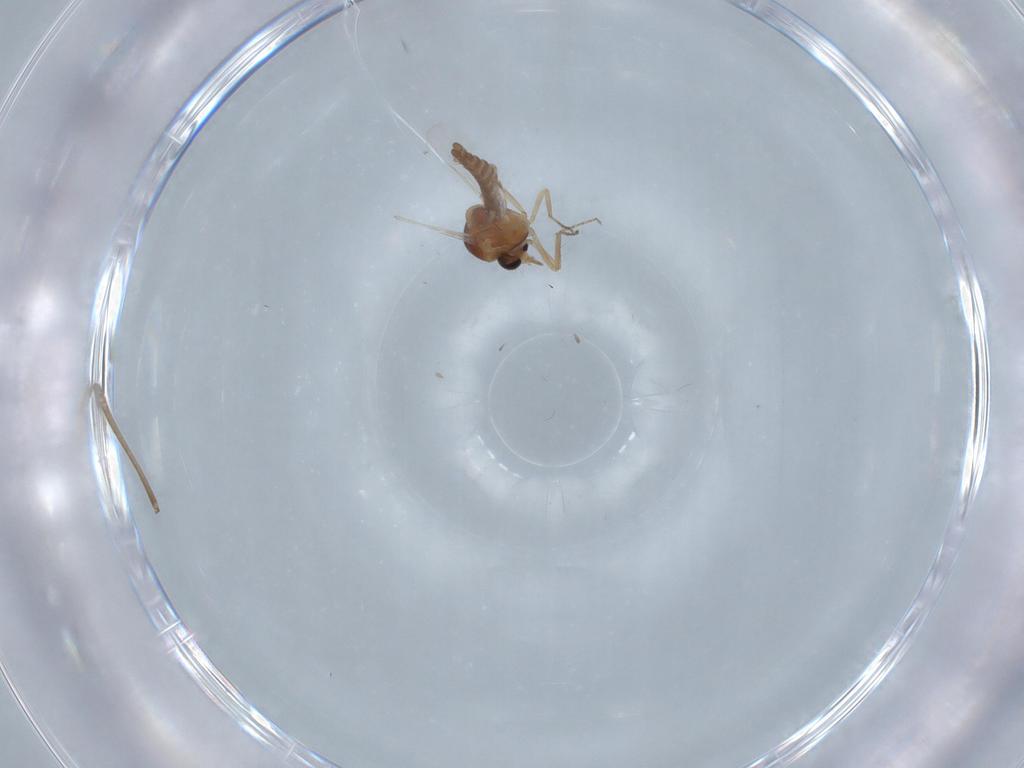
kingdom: Animalia
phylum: Arthropoda
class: Insecta
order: Diptera
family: Ceratopogonidae
